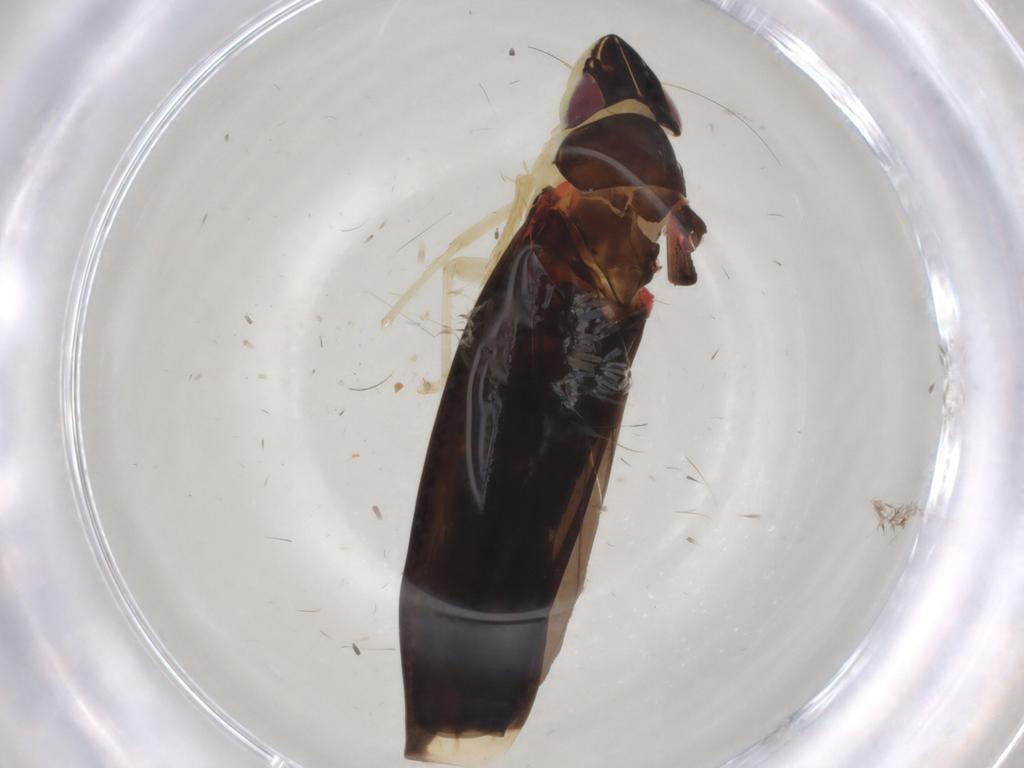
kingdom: Animalia
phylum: Arthropoda
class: Insecta
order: Hemiptera
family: Cicadellidae
